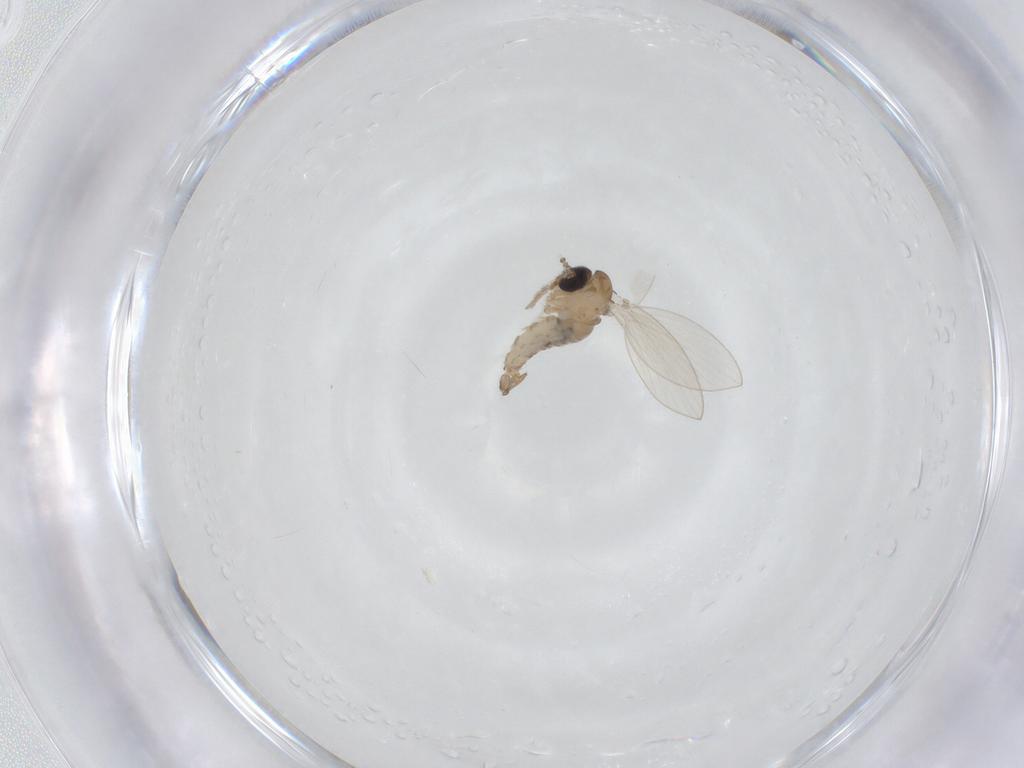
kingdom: Animalia
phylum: Arthropoda
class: Insecta
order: Diptera
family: Psychodidae
